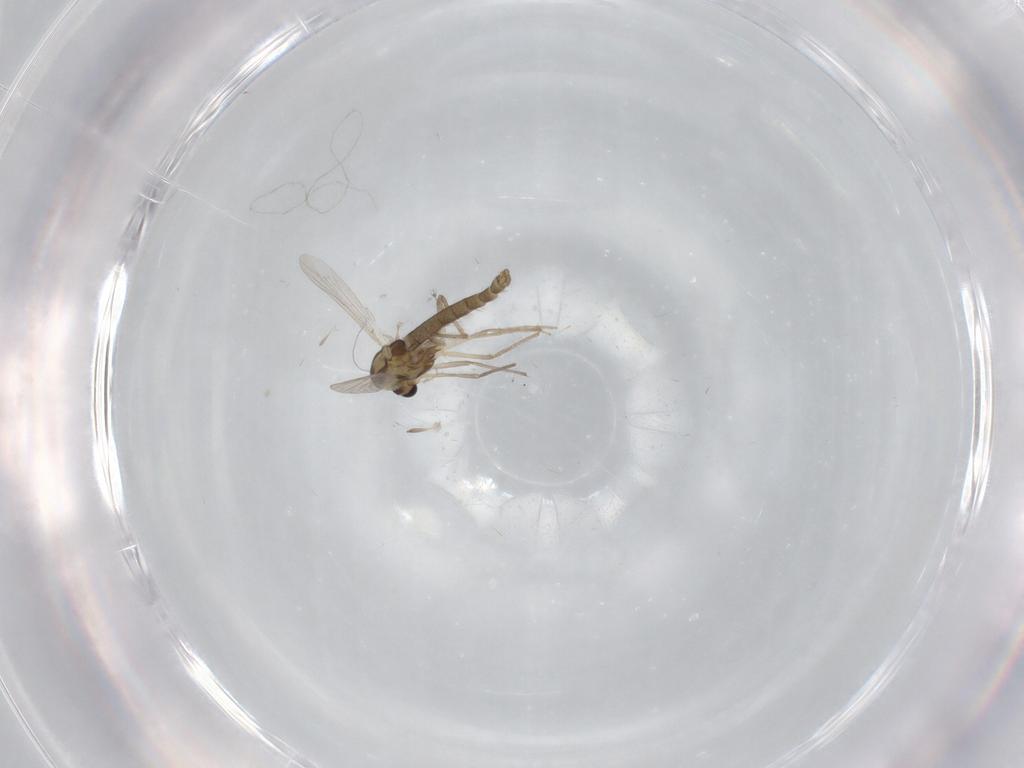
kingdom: Animalia
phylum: Arthropoda
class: Insecta
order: Diptera
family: Chironomidae
